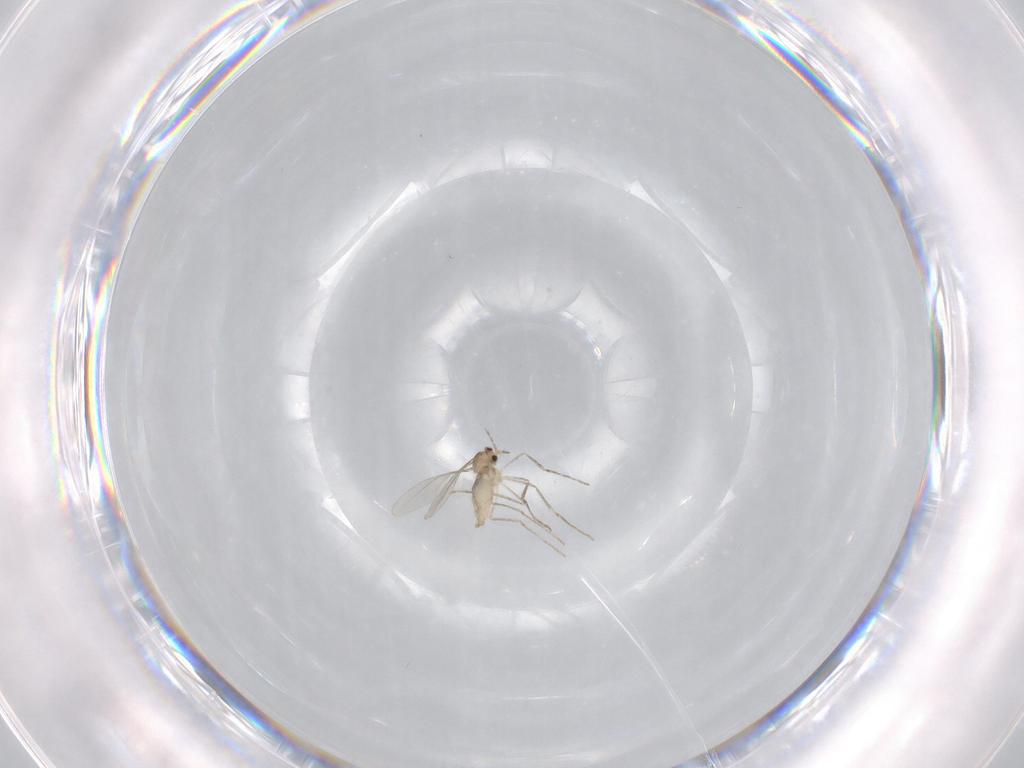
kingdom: Animalia
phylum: Arthropoda
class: Insecta
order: Diptera
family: Cecidomyiidae
